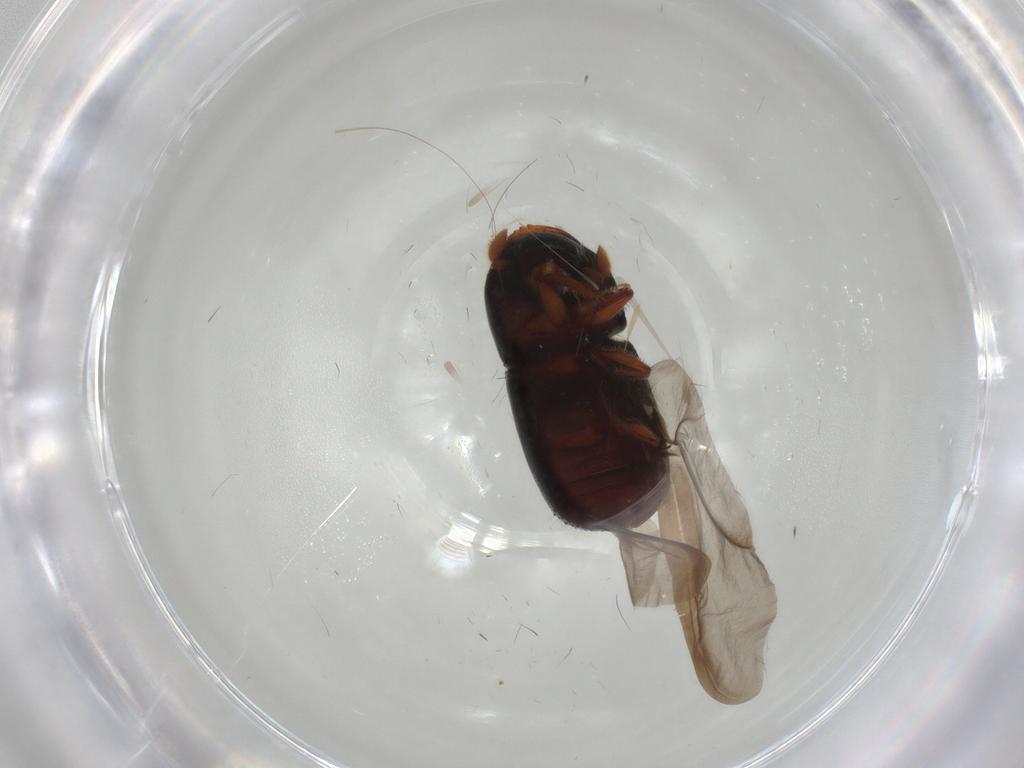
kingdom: Animalia
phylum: Arthropoda
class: Insecta
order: Coleoptera
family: Curculionidae
